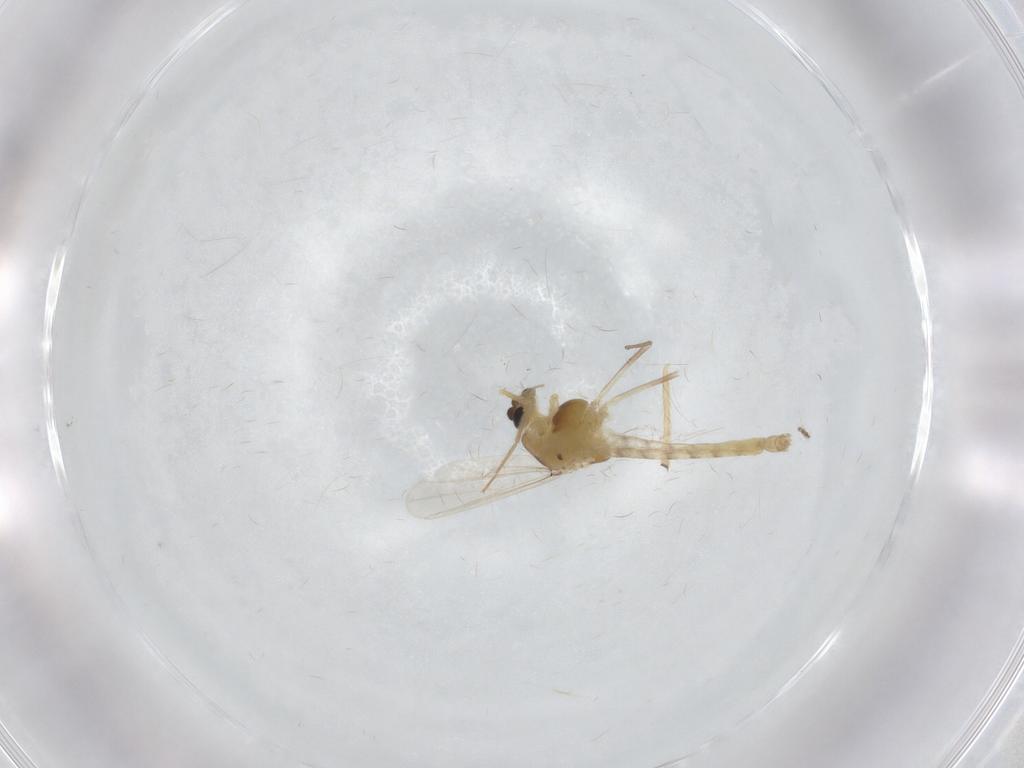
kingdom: Animalia
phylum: Arthropoda
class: Insecta
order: Diptera
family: Chironomidae
